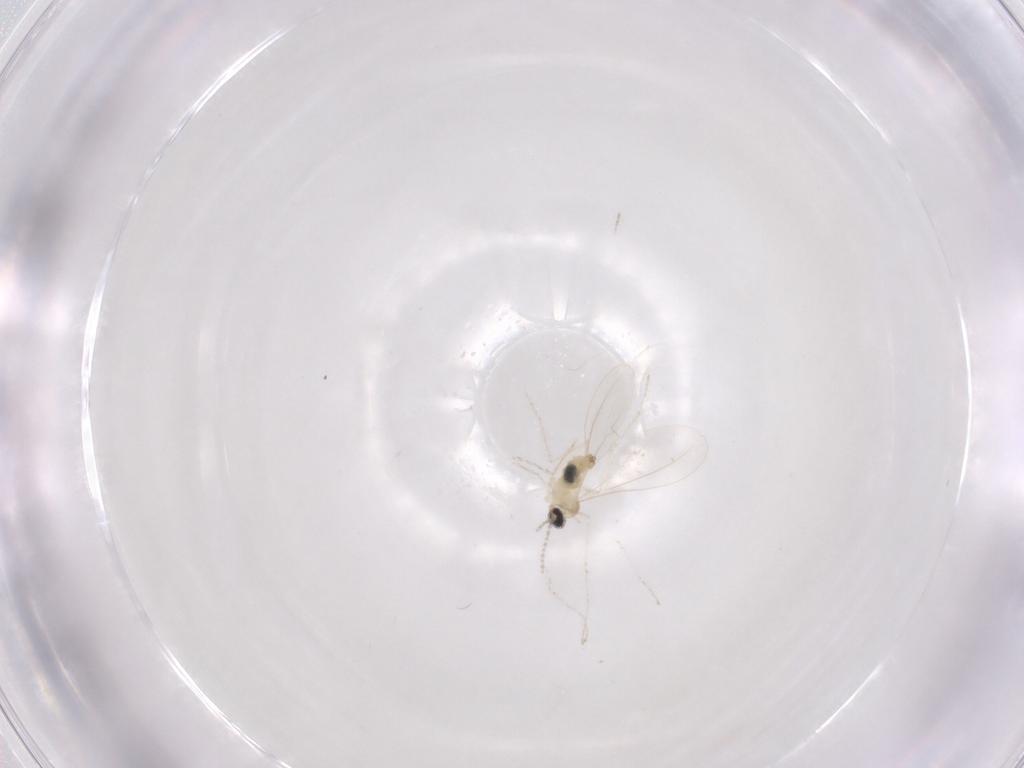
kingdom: Animalia
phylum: Arthropoda
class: Insecta
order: Diptera
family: Cecidomyiidae
